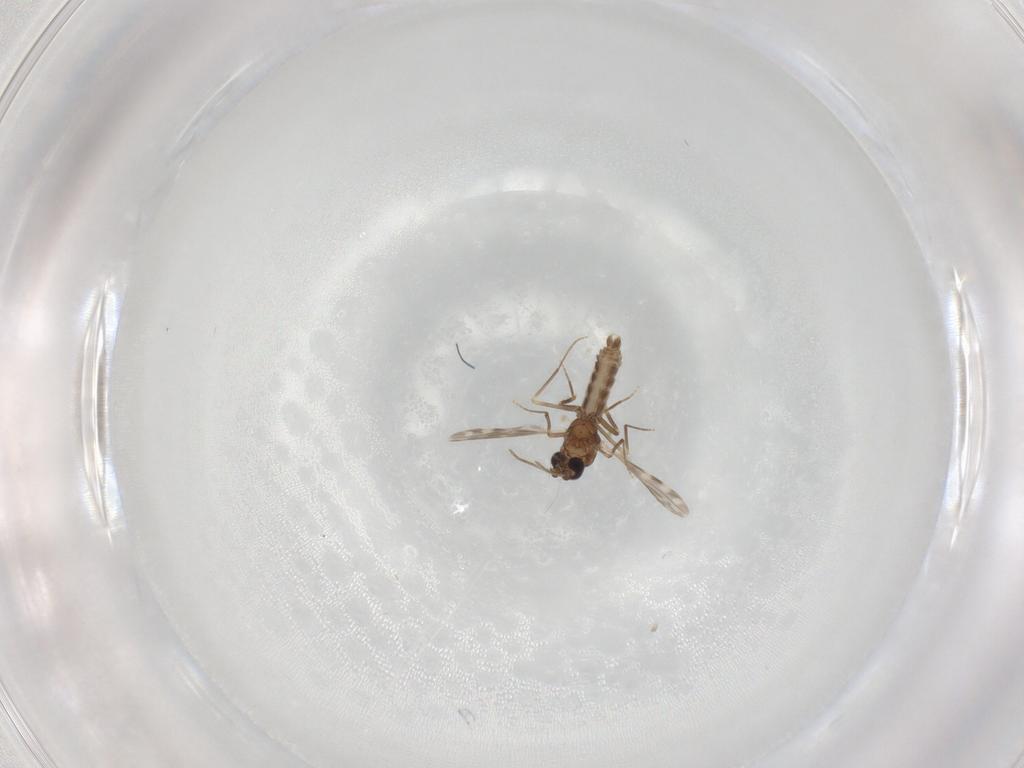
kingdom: Animalia
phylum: Arthropoda
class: Insecta
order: Diptera
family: Ceratopogonidae
